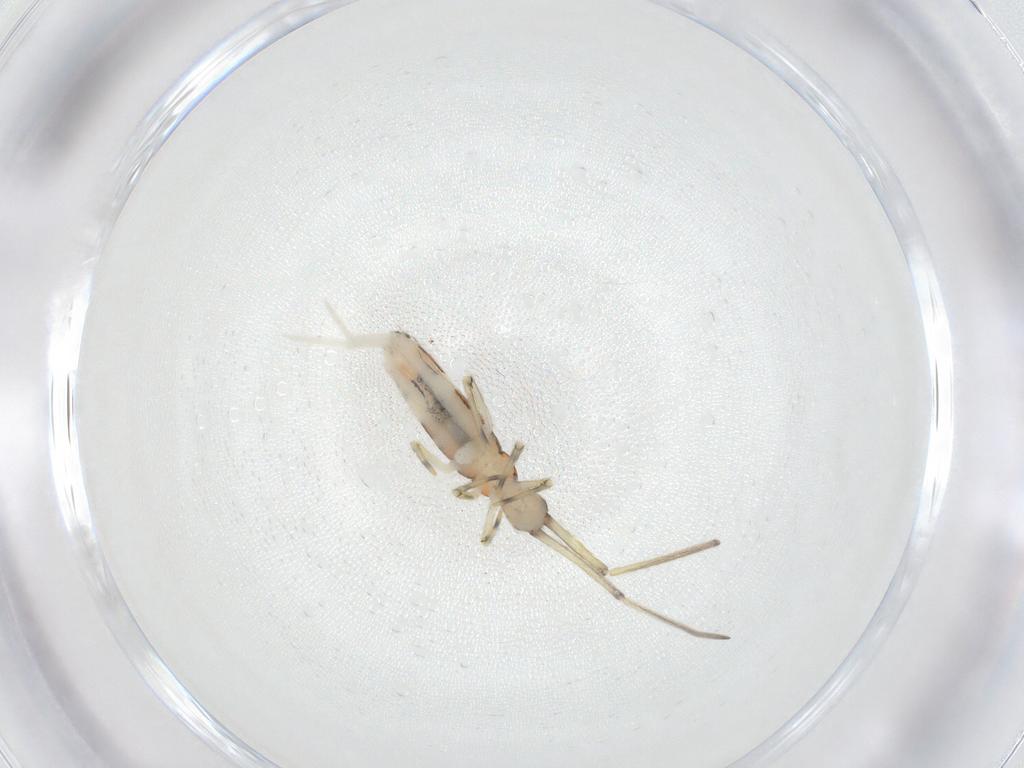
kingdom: Animalia
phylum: Arthropoda
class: Collembola
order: Entomobryomorpha
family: Paronellidae
